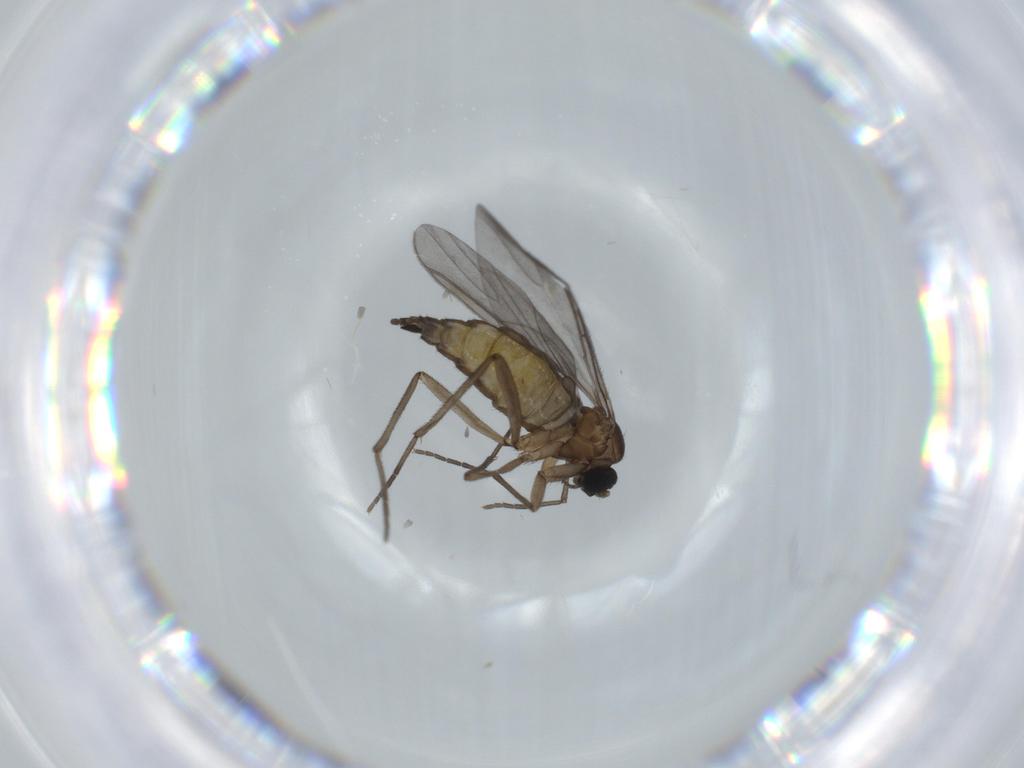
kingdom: Animalia
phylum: Arthropoda
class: Insecta
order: Diptera
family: Sciaridae
